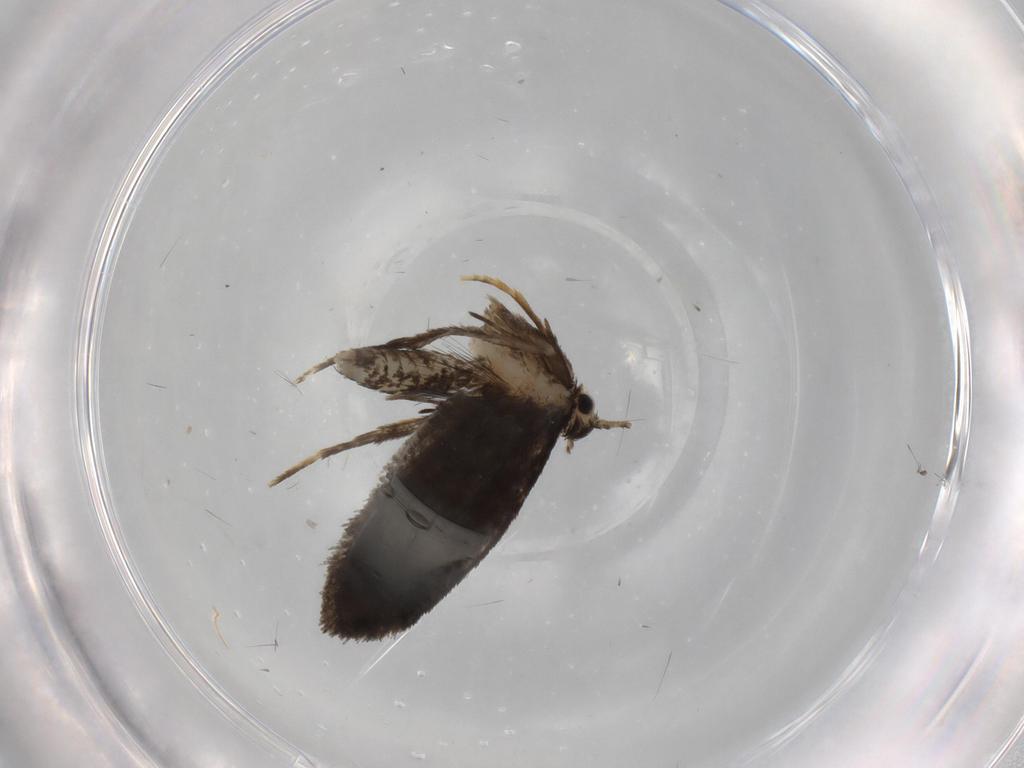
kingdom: Animalia
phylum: Arthropoda
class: Insecta
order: Lepidoptera
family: Psychidae
